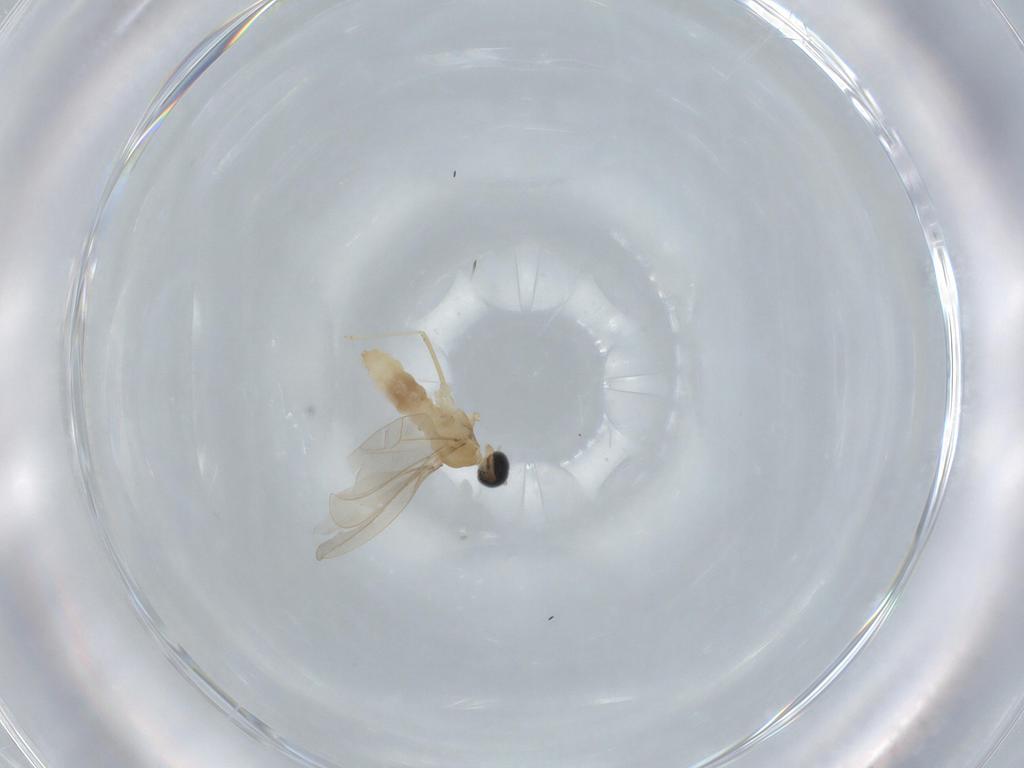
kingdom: Animalia
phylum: Arthropoda
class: Insecta
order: Diptera
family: Cecidomyiidae
